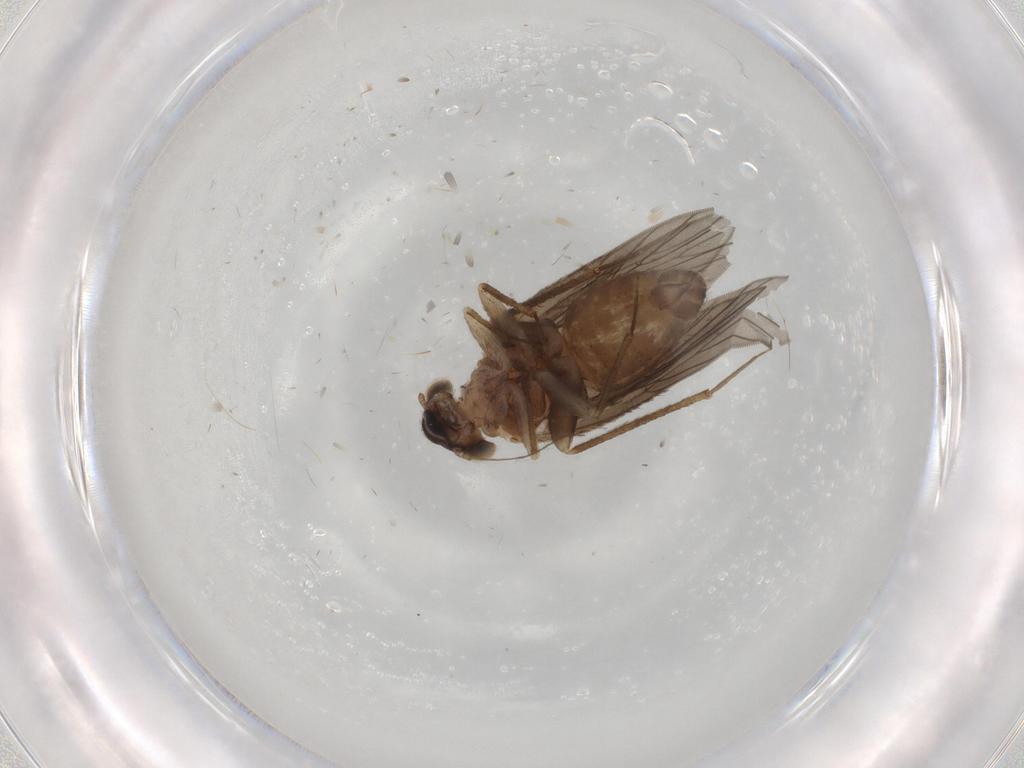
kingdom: Animalia
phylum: Arthropoda
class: Insecta
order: Psocodea
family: Lepidopsocidae
